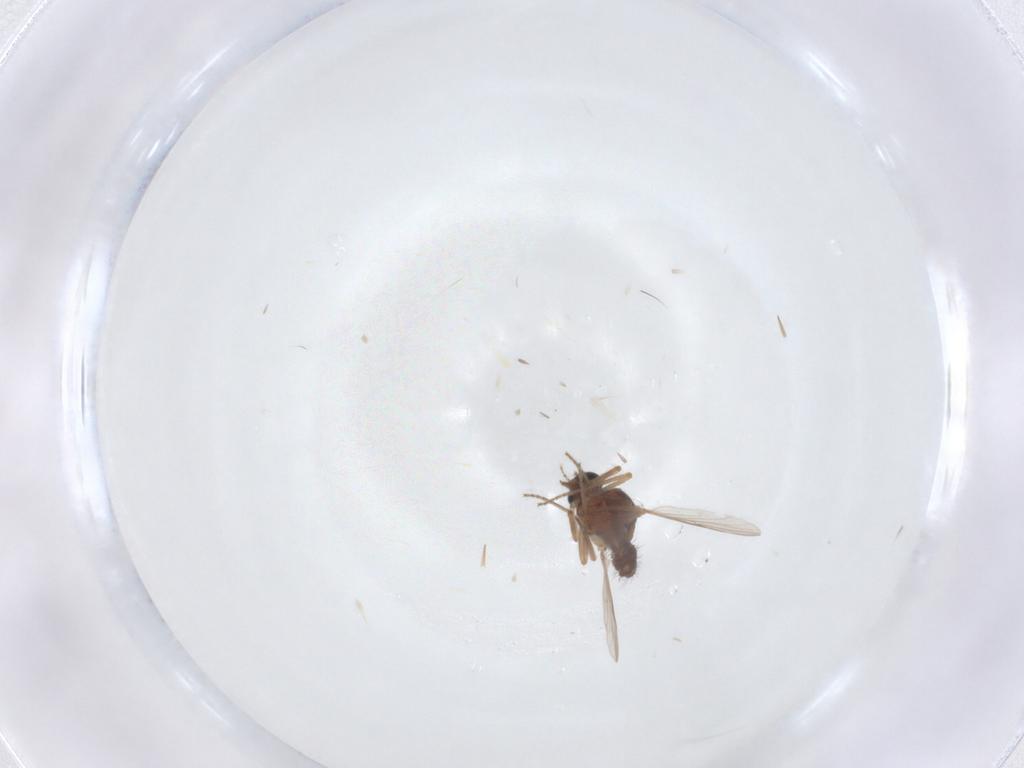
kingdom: Animalia
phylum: Arthropoda
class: Insecta
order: Diptera
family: Ceratopogonidae
